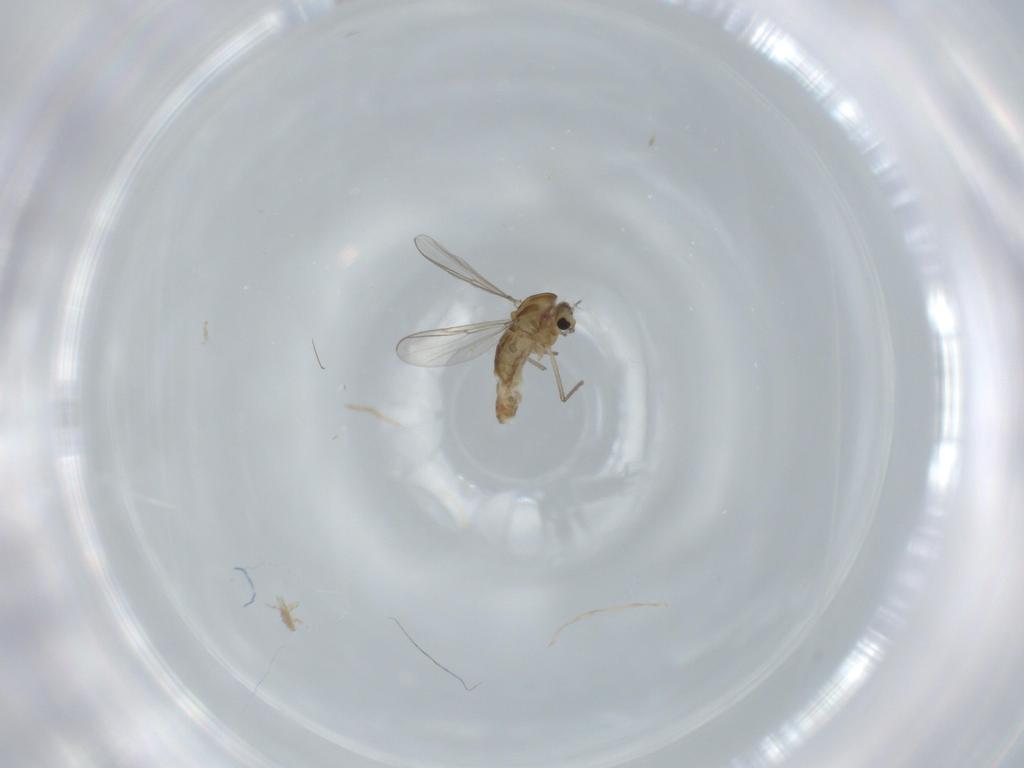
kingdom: Animalia
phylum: Arthropoda
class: Insecta
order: Diptera
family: Chironomidae
